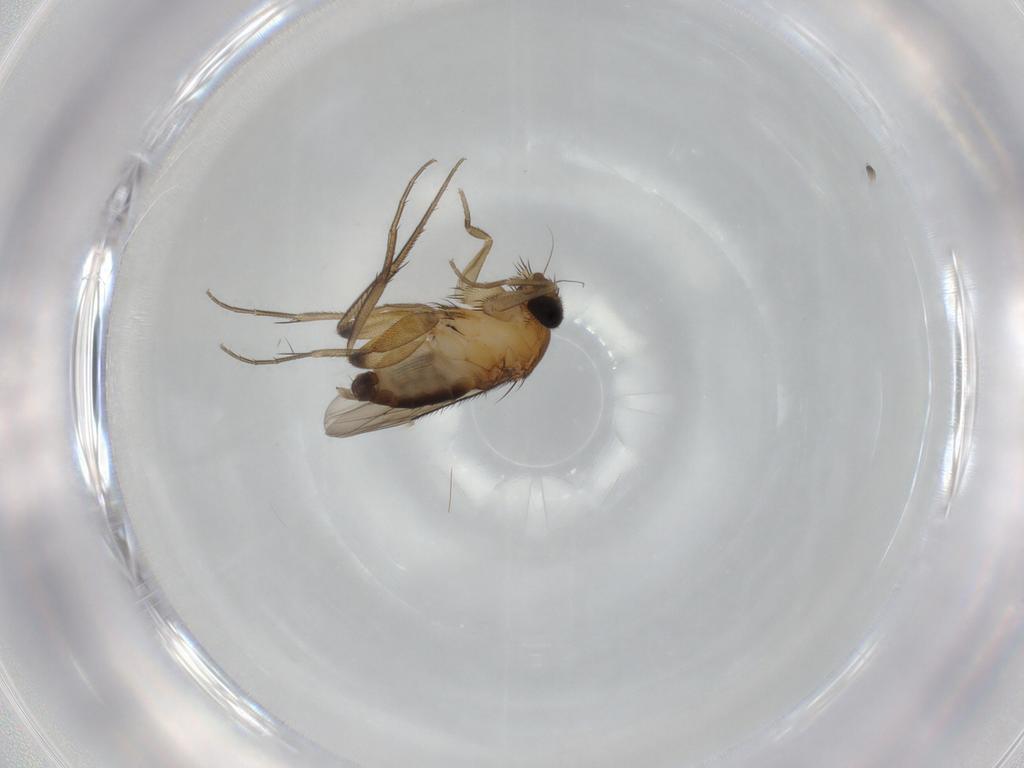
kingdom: Animalia
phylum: Arthropoda
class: Insecta
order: Diptera
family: Phoridae
